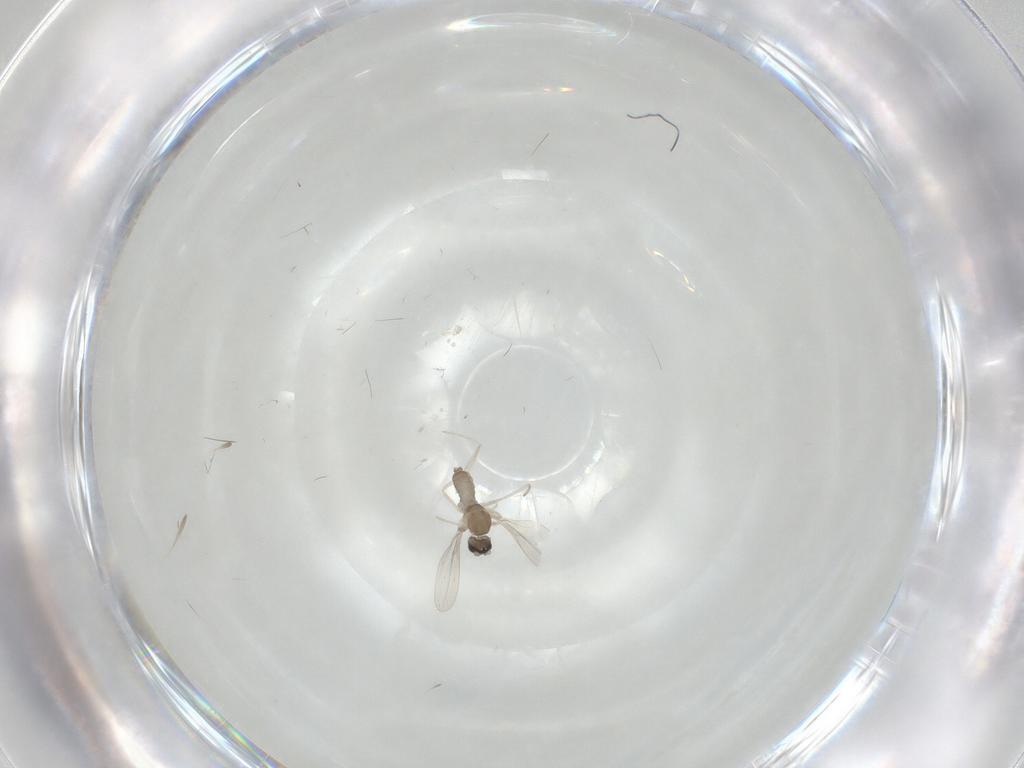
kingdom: Animalia
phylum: Arthropoda
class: Insecta
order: Diptera
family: Cecidomyiidae
